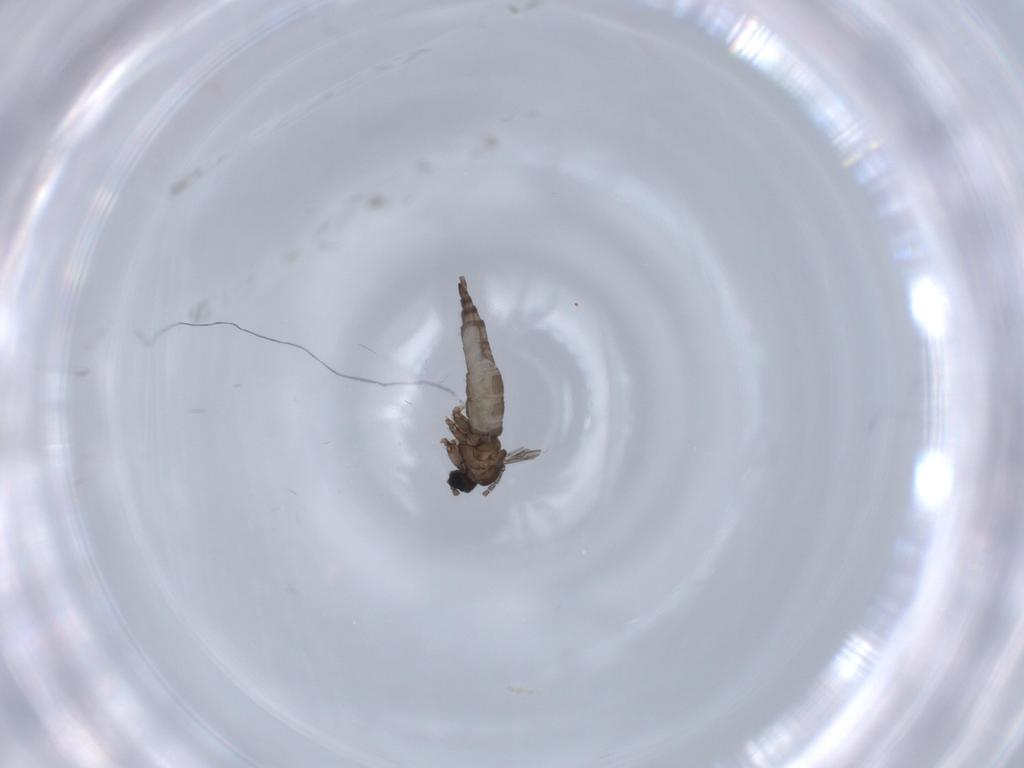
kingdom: Animalia
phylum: Arthropoda
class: Insecta
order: Diptera
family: Sciaridae
